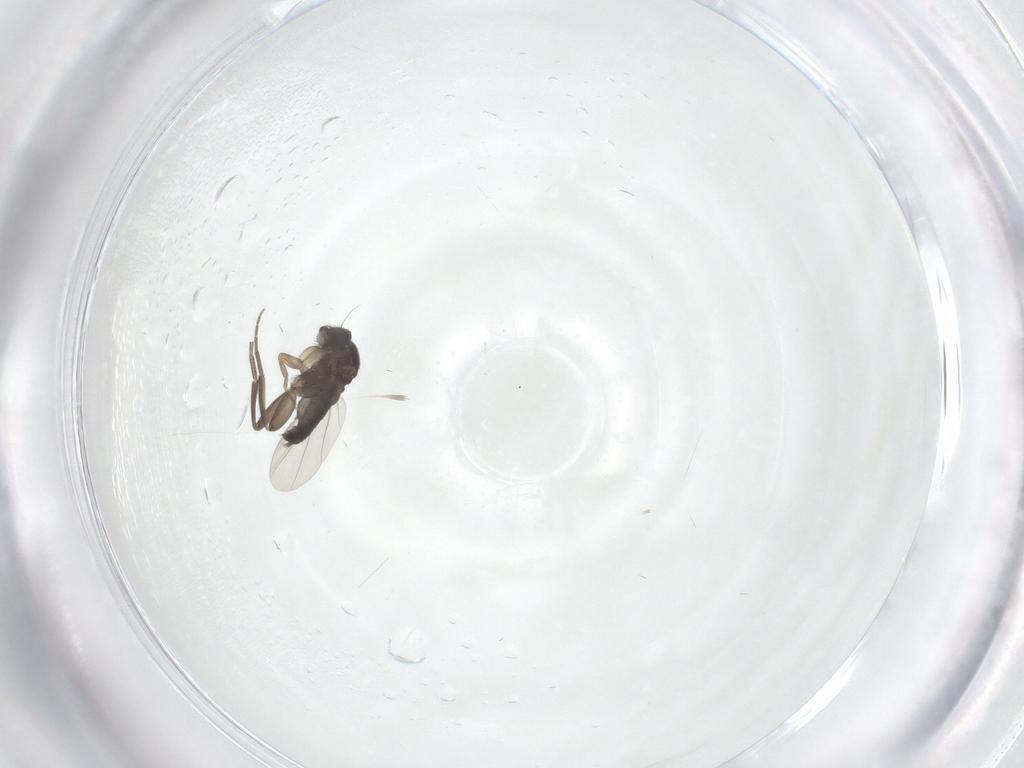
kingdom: Animalia
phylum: Arthropoda
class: Insecta
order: Diptera
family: Phoridae
